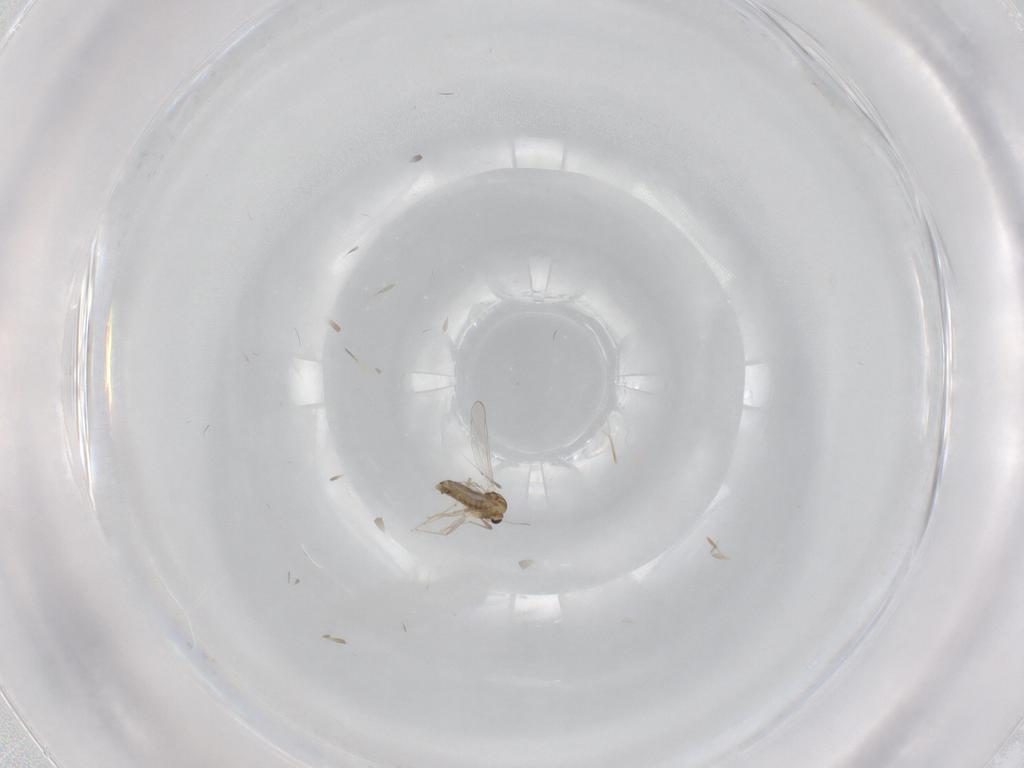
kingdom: Animalia
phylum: Arthropoda
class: Insecta
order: Diptera
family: Chironomidae
